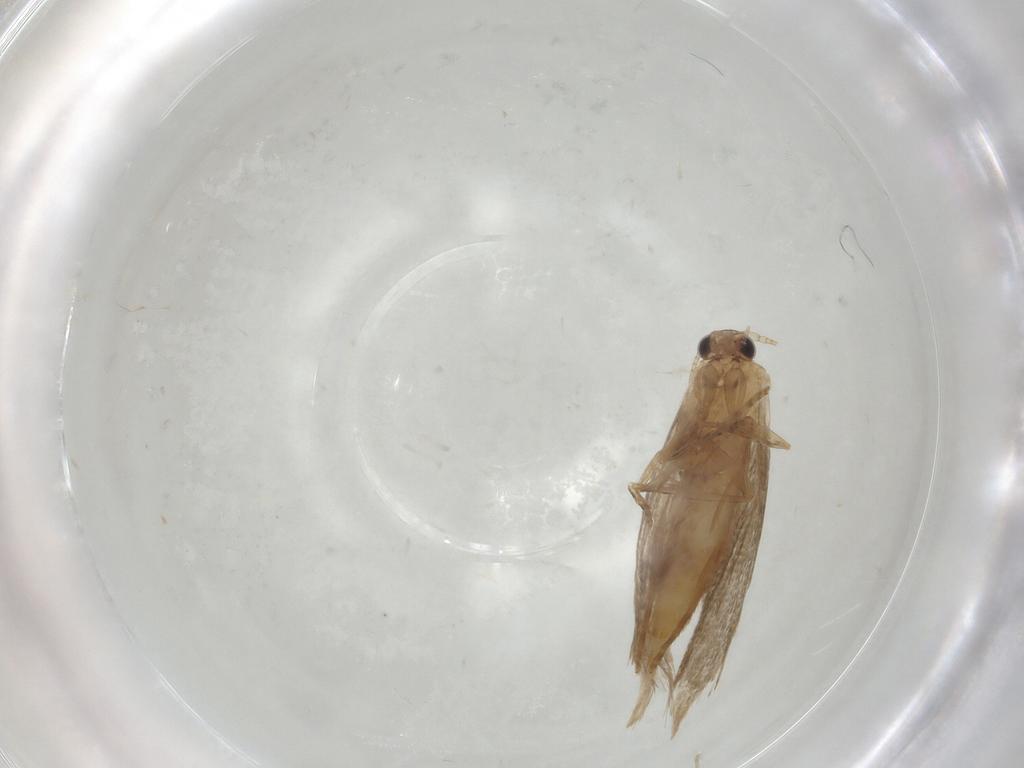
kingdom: Animalia
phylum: Arthropoda
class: Insecta
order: Lepidoptera
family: Erebidae
